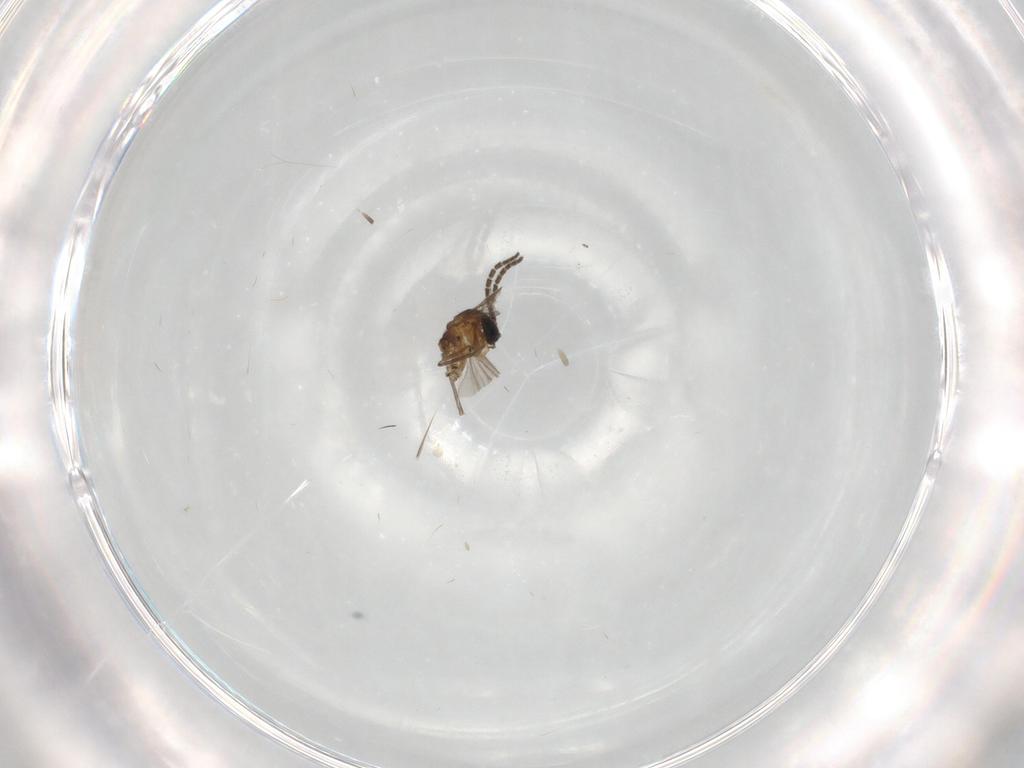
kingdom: Animalia
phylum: Arthropoda
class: Insecta
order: Diptera
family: Sciaridae
